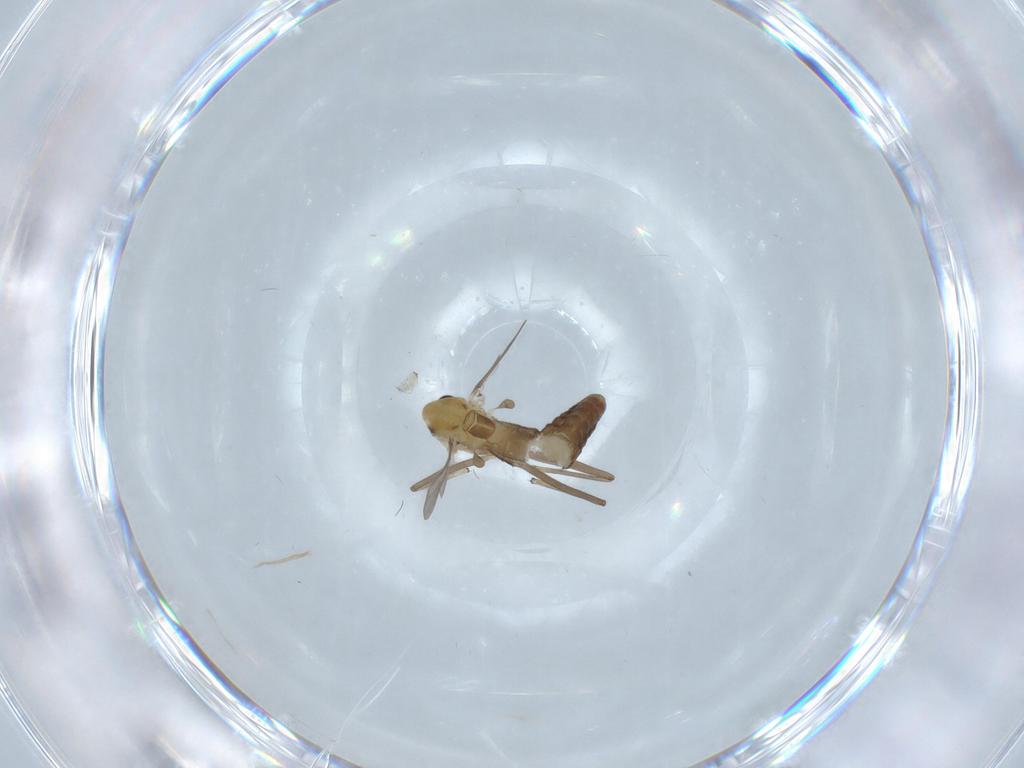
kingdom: Animalia
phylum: Arthropoda
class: Insecta
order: Diptera
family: Chironomidae
